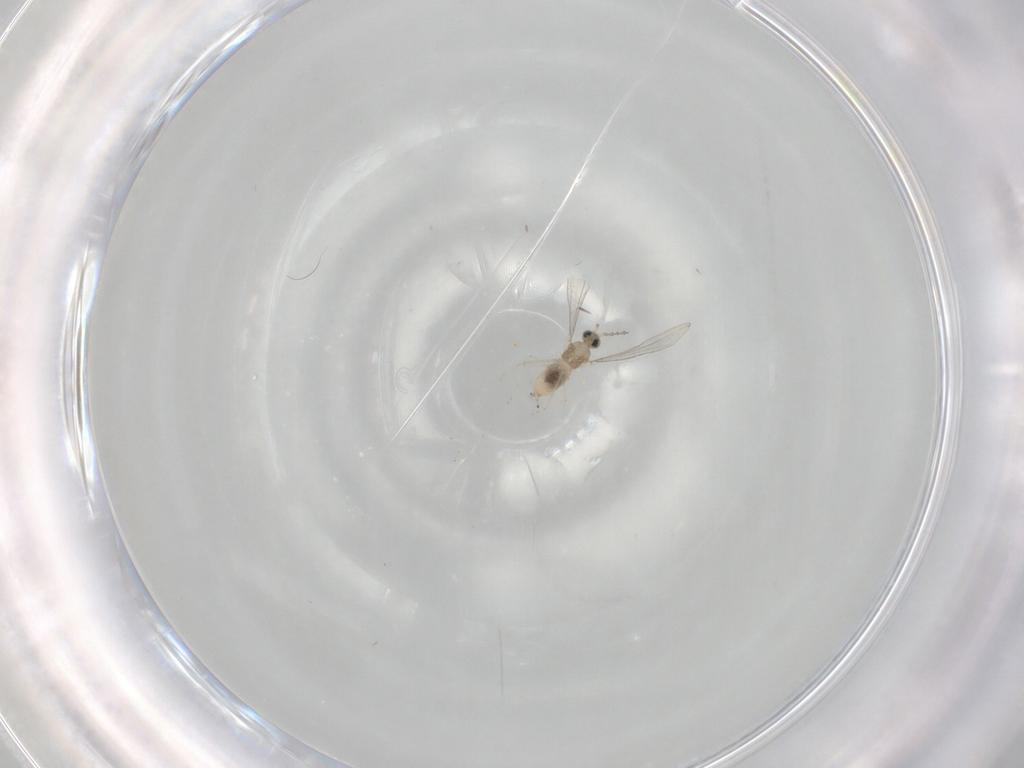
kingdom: Animalia
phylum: Arthropoda
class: Insecta
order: Diptera
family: Cecidomyiidae
